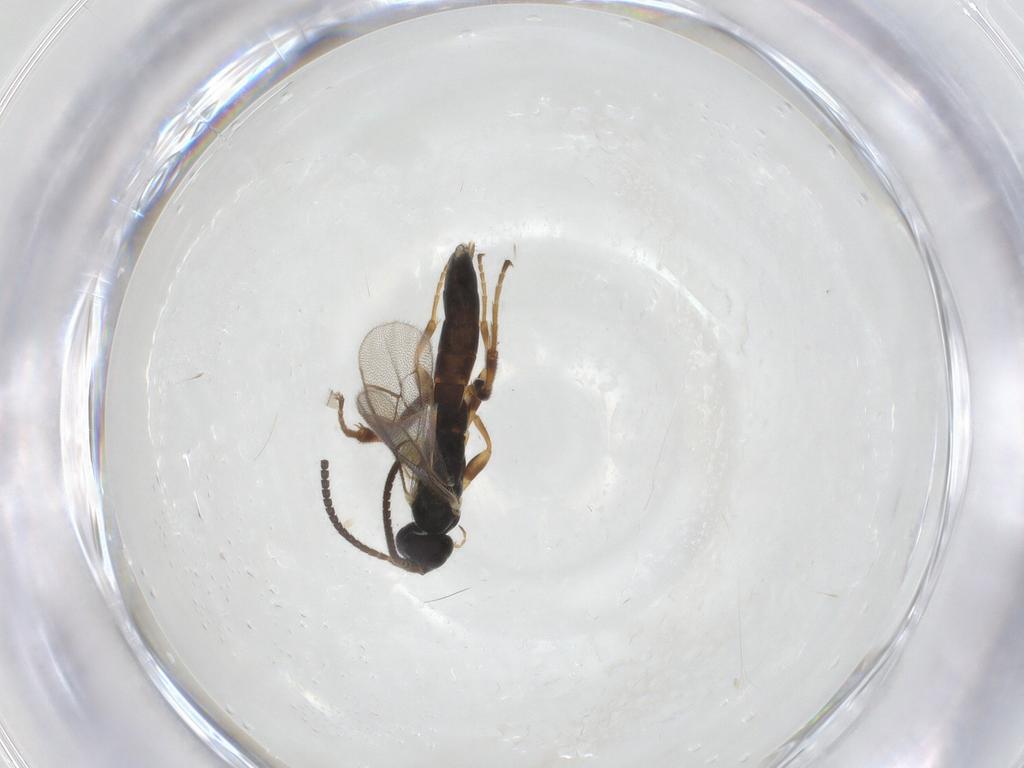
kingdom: Animalia
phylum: Arthropoda
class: Insecta
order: Hymenoptera
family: Ichneumonidae
